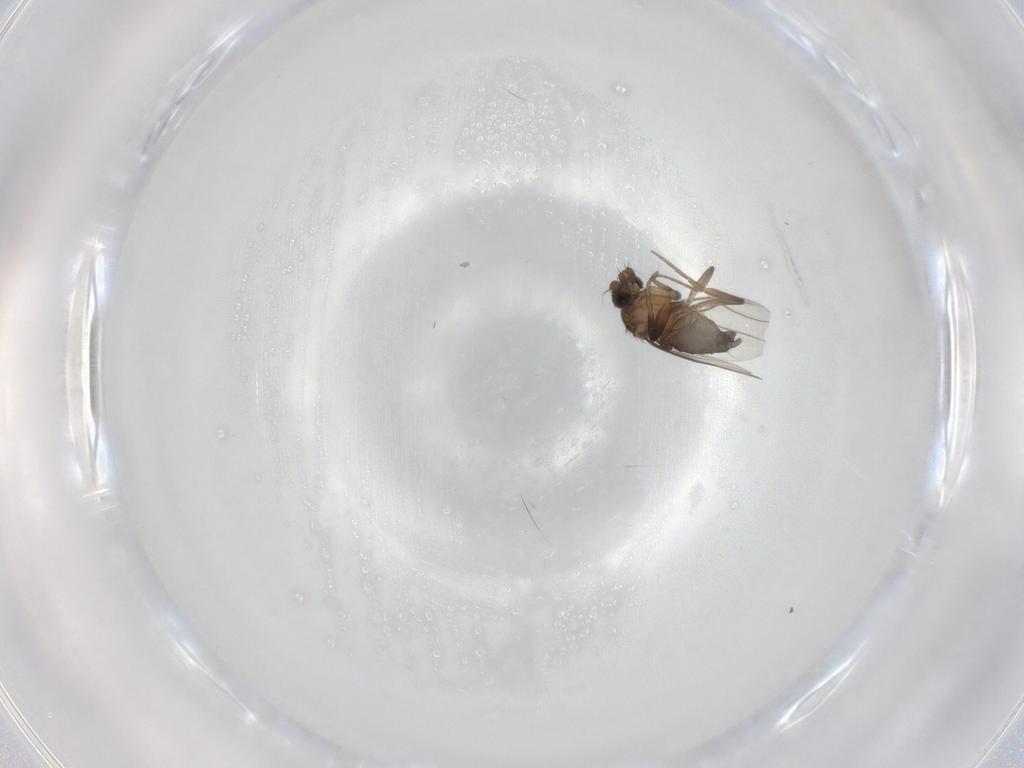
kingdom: Animalia
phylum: Arthropoda
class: Insecta
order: Diptera
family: Phoridae
